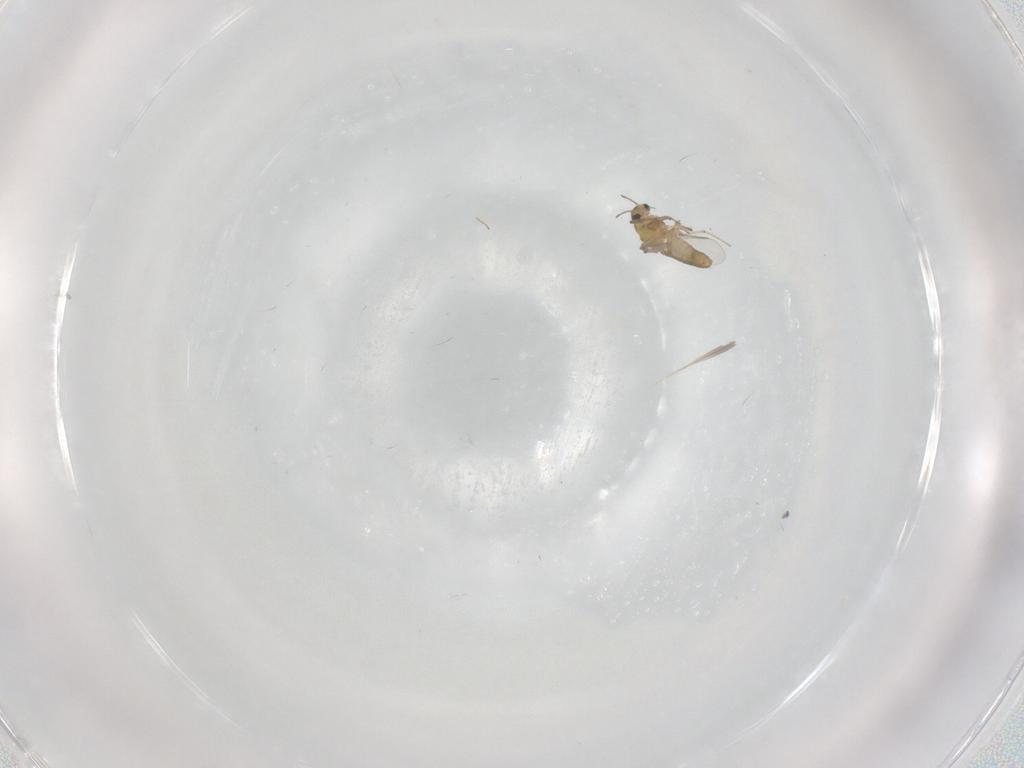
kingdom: Animalia
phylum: Arthropoda
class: Insecta
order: Diptera
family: Chironomidae
